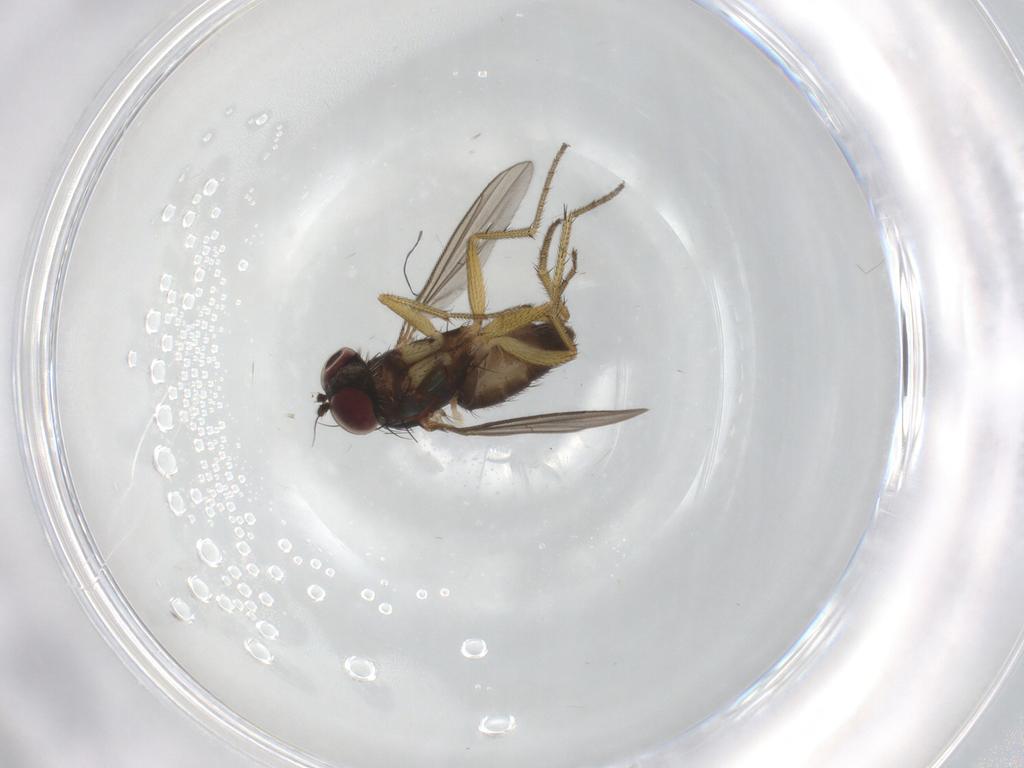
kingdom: Animalia
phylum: Arthropoda
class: Insecta
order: Diptera
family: Dolichopodidae
